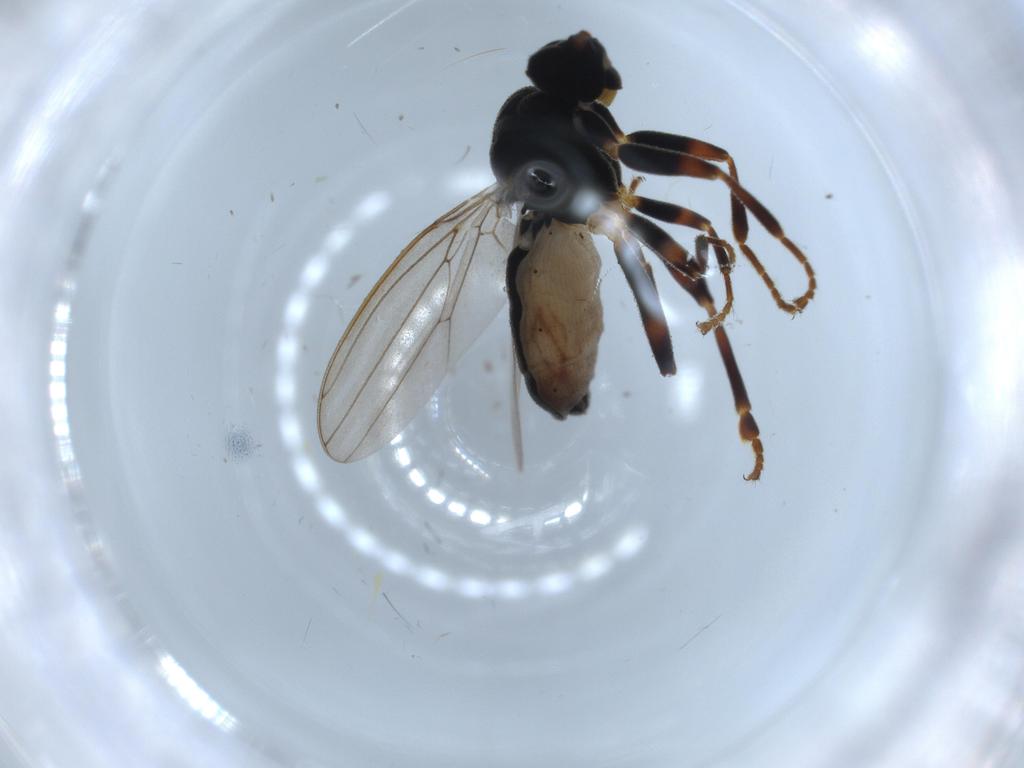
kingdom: Animalia
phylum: Arthropoda
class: Insecta
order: Diptera
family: Sphaeroceridae
